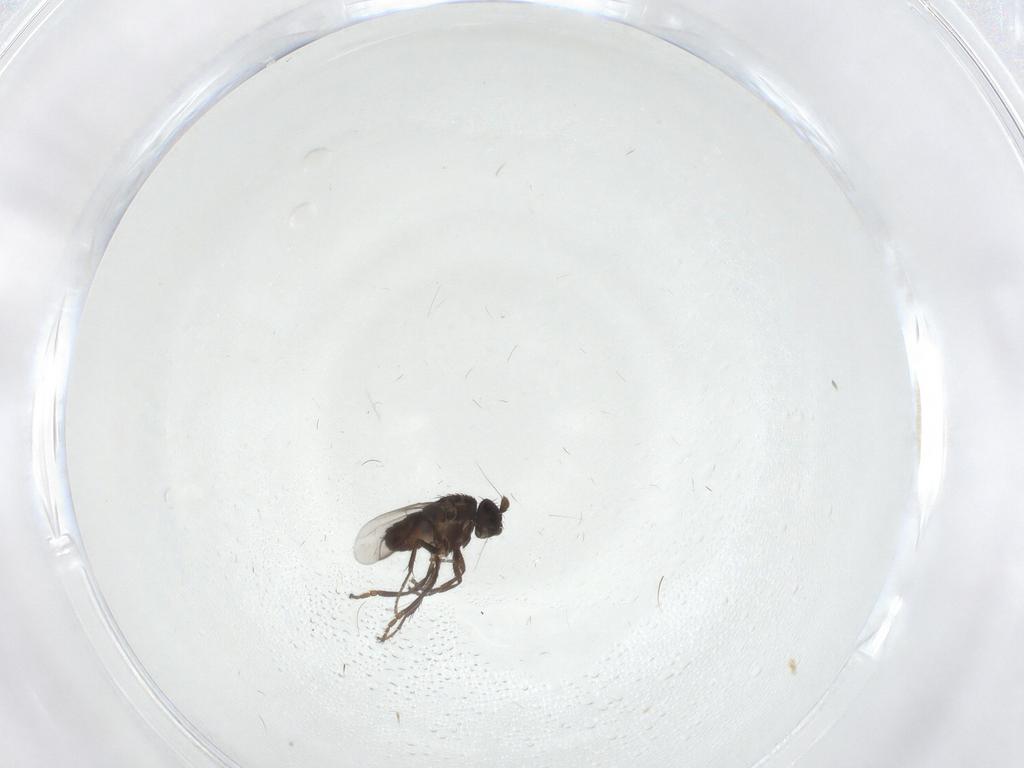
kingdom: Animalia
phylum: Arthropoda
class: Insecta
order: Diptera
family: Sphaeroceridae
